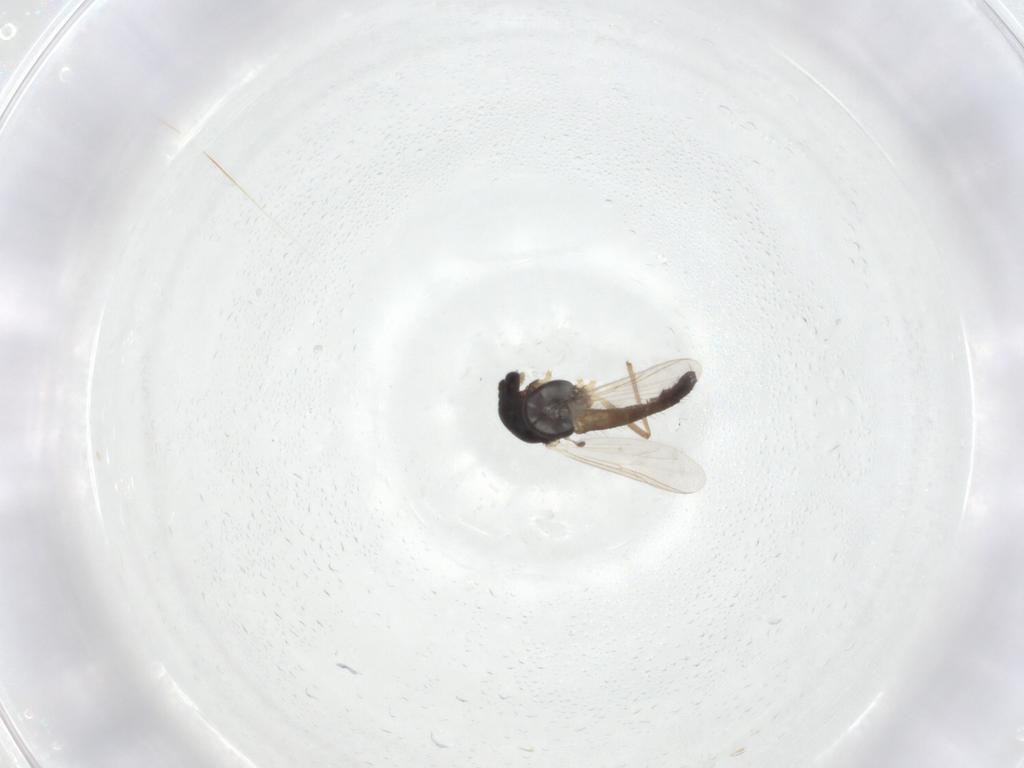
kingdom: Animalia
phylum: Arthropoda
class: Insecta
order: Diptera
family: Chironomidae
